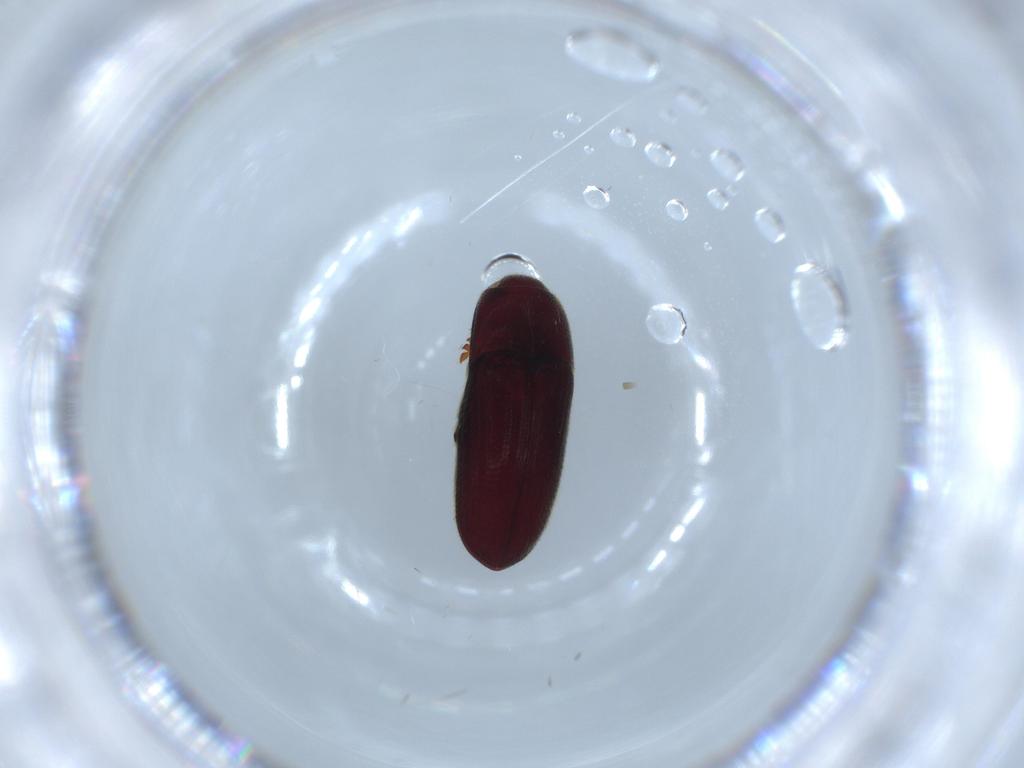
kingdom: Animalia
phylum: Arthropoda
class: Insecta
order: Coleoptera
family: Throscidae
